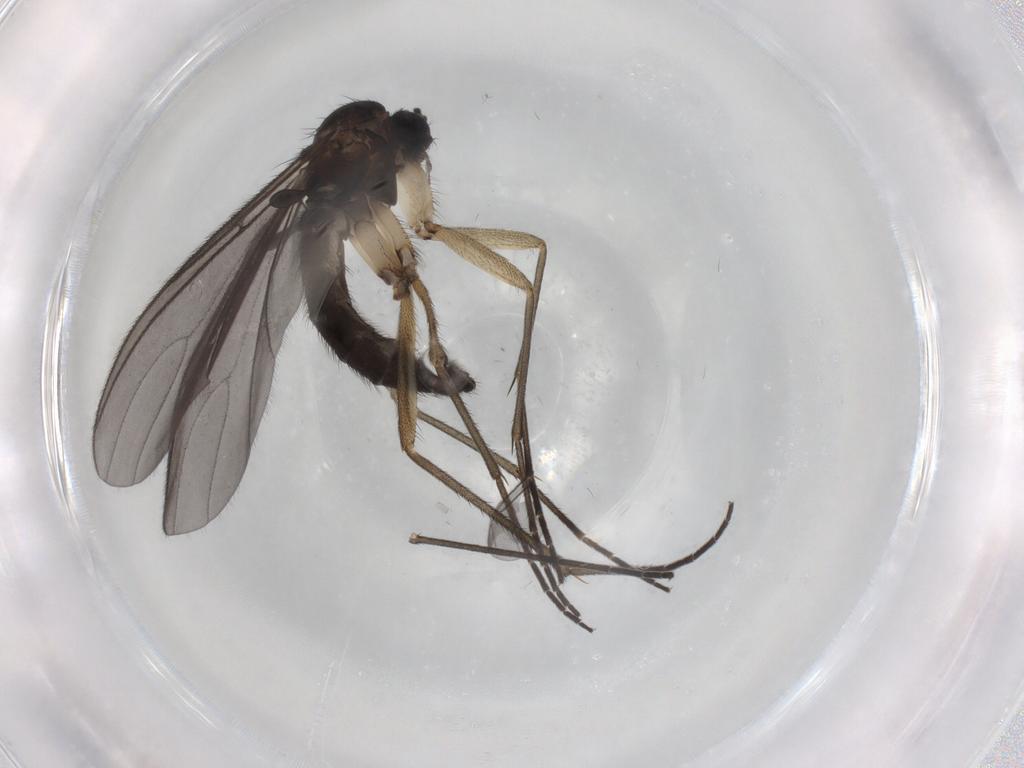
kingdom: Animalia
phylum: Arthropoda
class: Insecta
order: Diptera
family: Sciaridae
